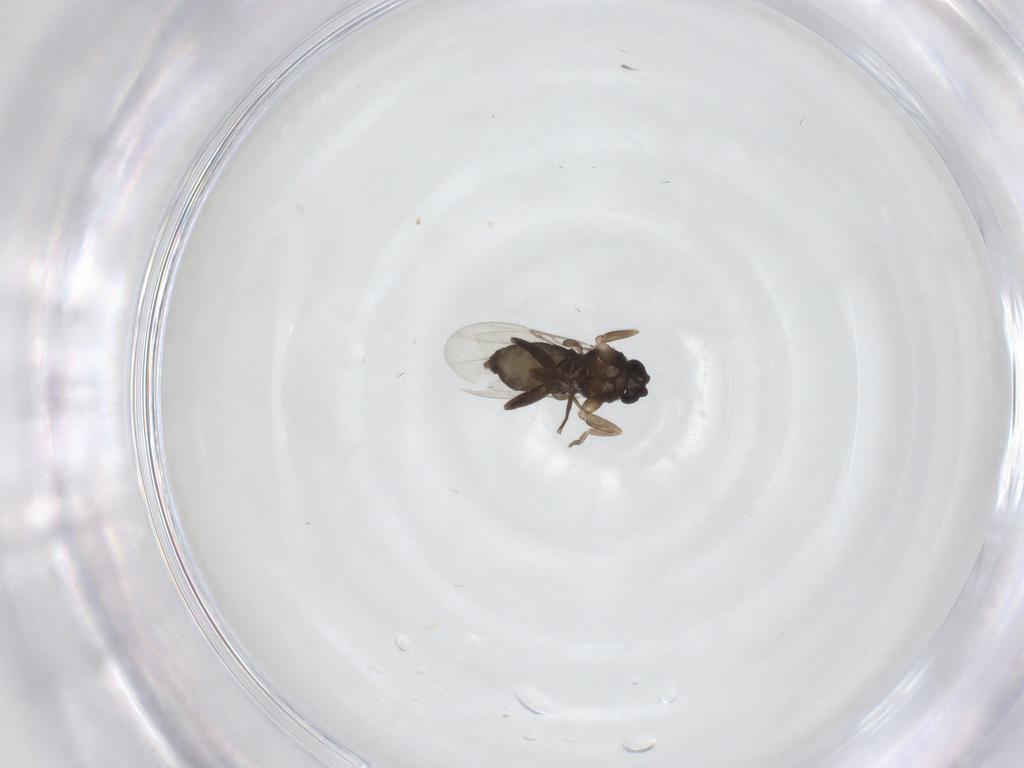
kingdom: Animalia
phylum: Arthropoda
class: Insecta
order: Diptera
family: Phoridae
